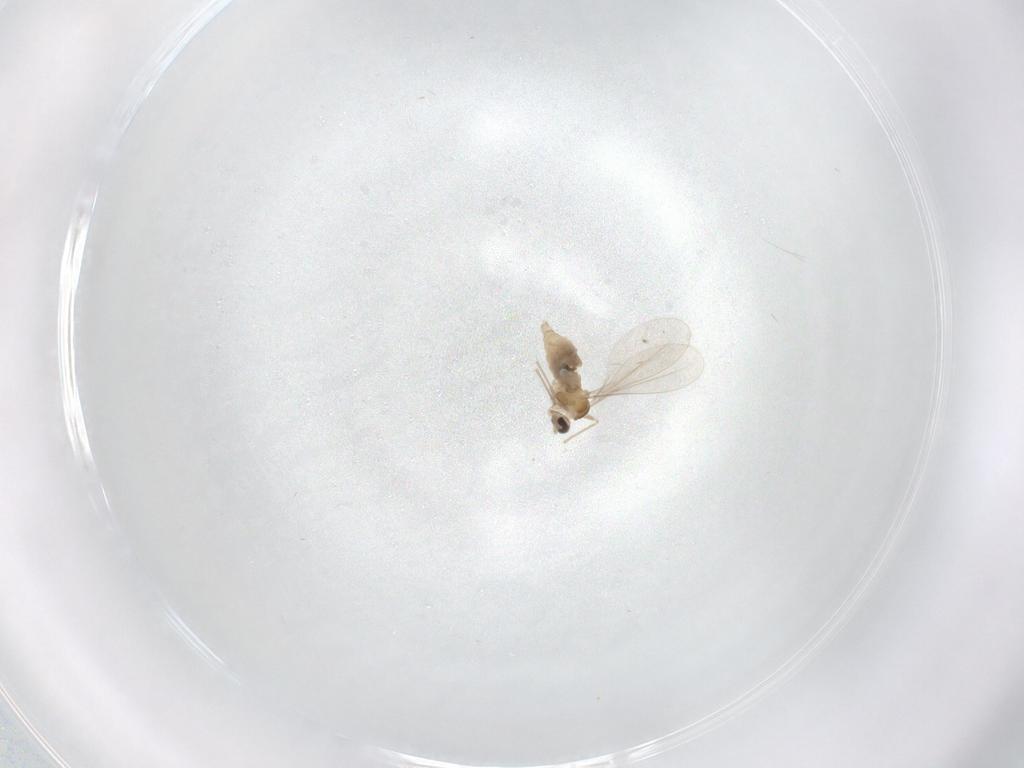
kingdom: Animalia
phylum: Arthropoda
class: Insecta
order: Diptera
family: Cecidomyiidae
